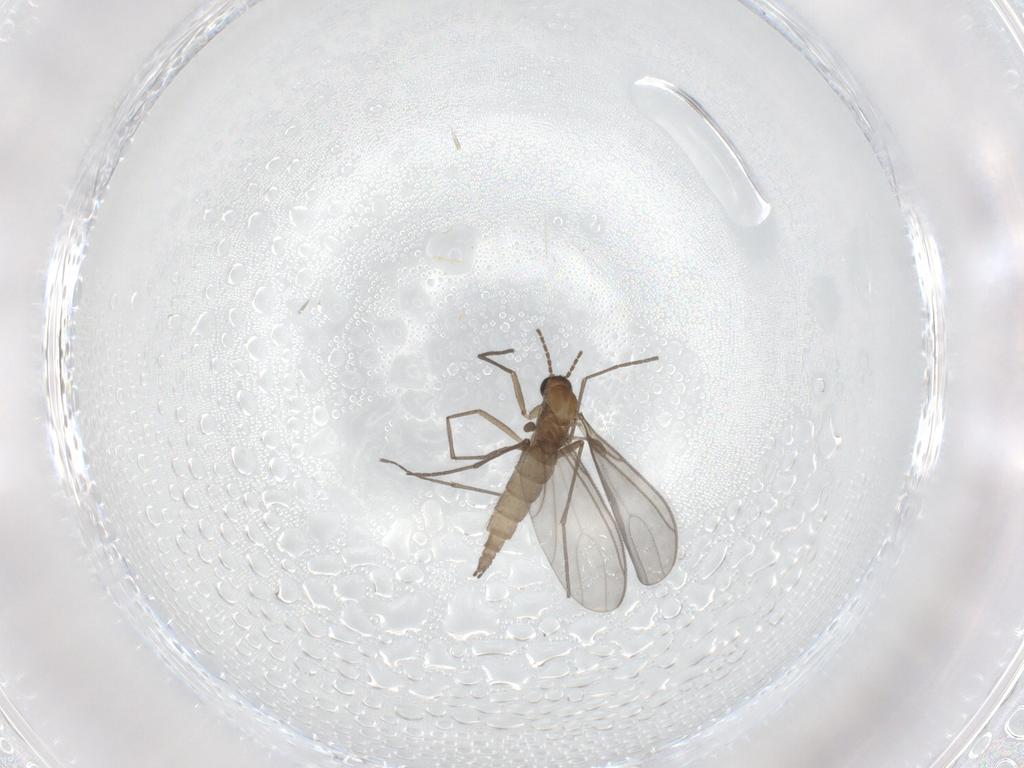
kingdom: Animalia
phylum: Arthropoda
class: Insecta
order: Diptera
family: Sciaridae
